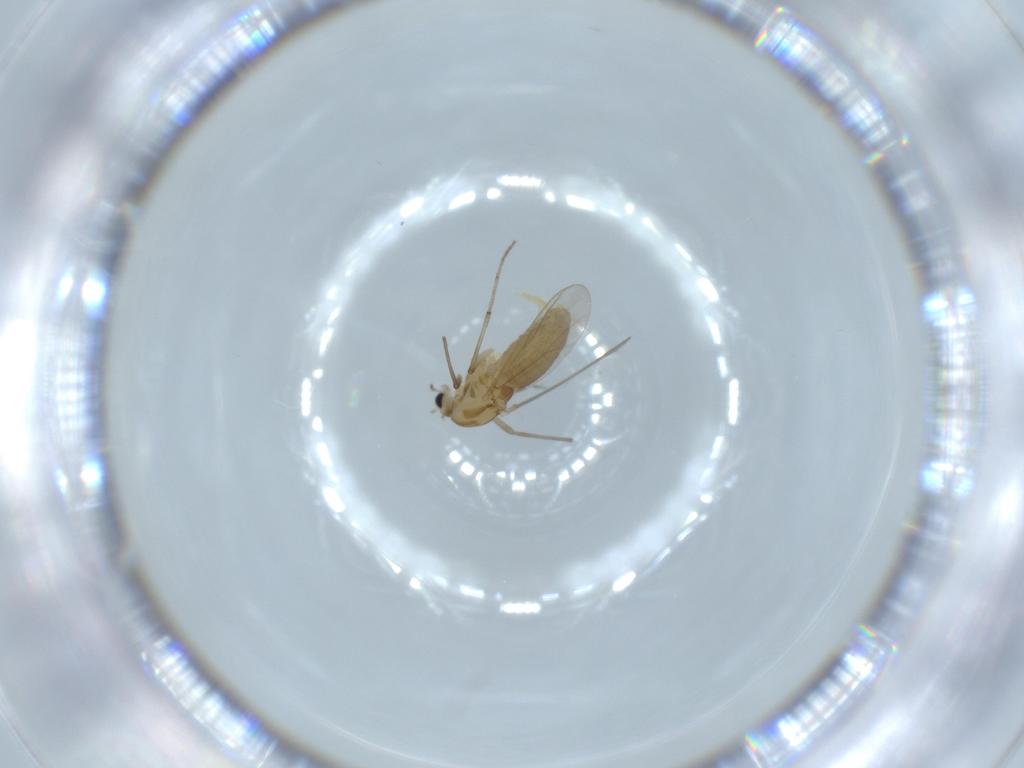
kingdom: Animalia
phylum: Arthropoda
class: Insecta
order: Diptera
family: Chironomidae
